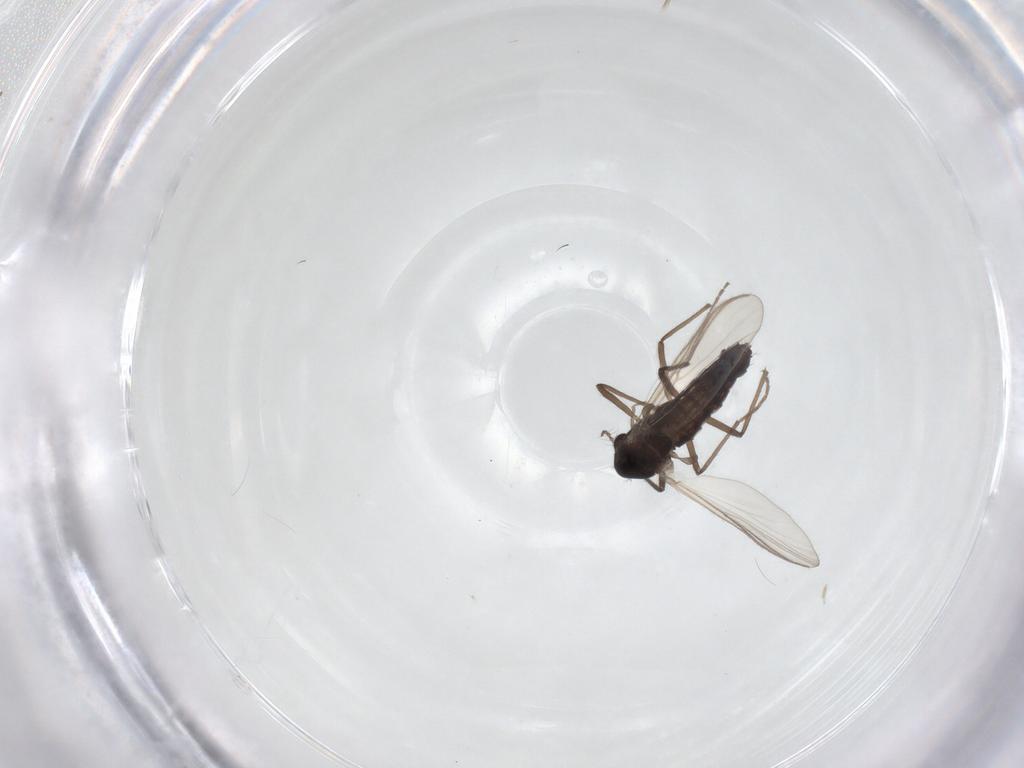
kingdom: Animalia
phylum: Arthropoda
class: Insecta
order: Diptera
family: Chironomidae
